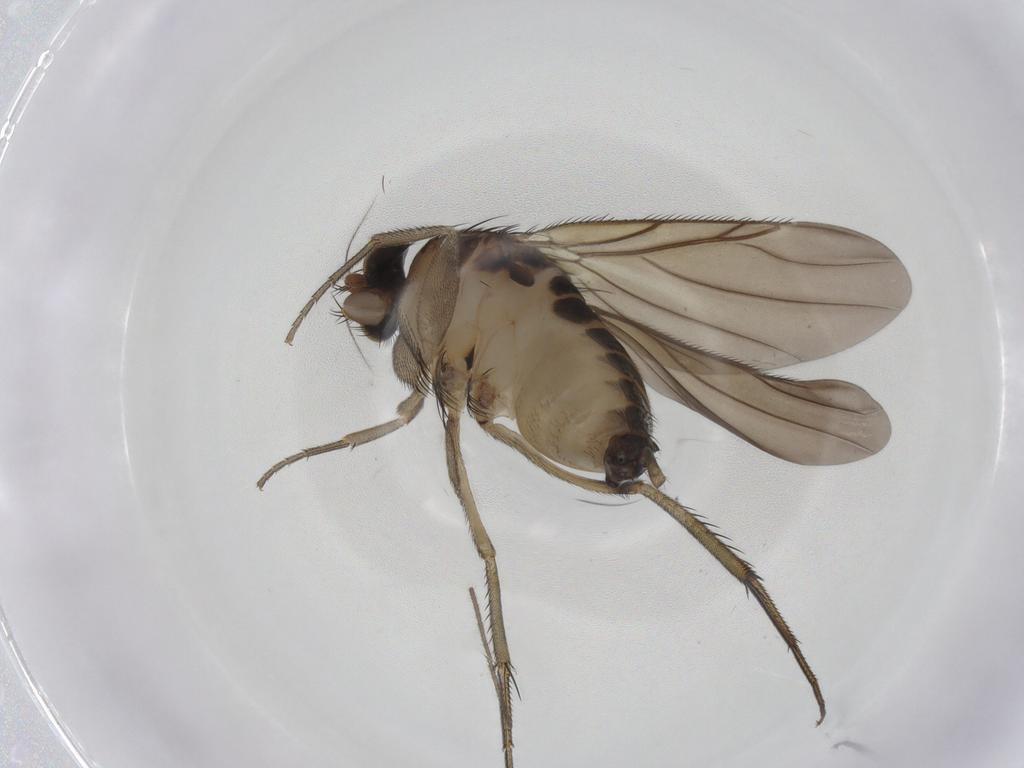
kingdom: Animalia
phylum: Arthropoda
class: Insecta
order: Diptera
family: Phoridae
